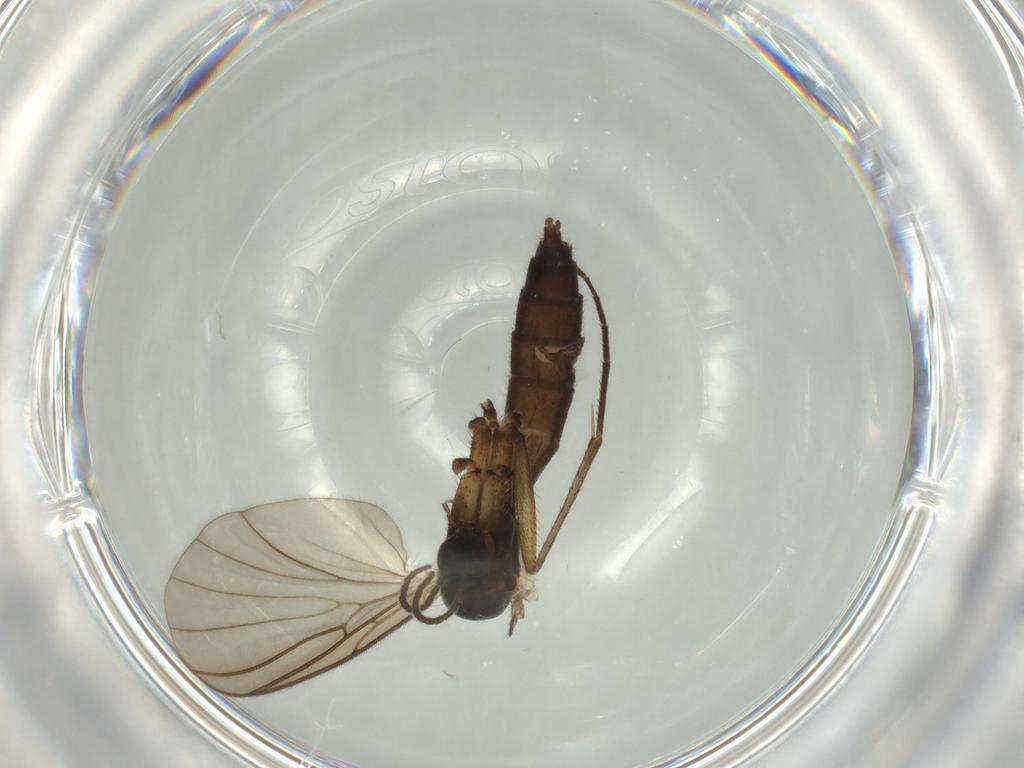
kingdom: Animalia
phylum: Arthropoda
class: Insecta
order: Diptera
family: Mycetophilidae
